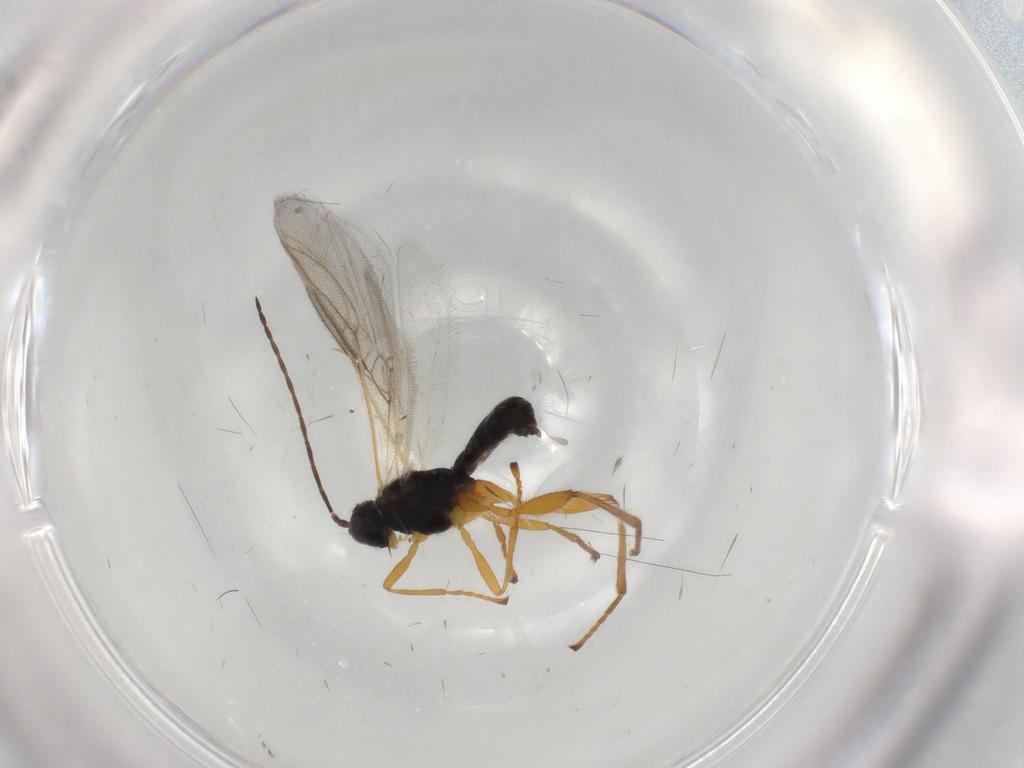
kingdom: Animalia
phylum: Arthropoda
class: Insecta
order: Hymenoptera
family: Braconidae
